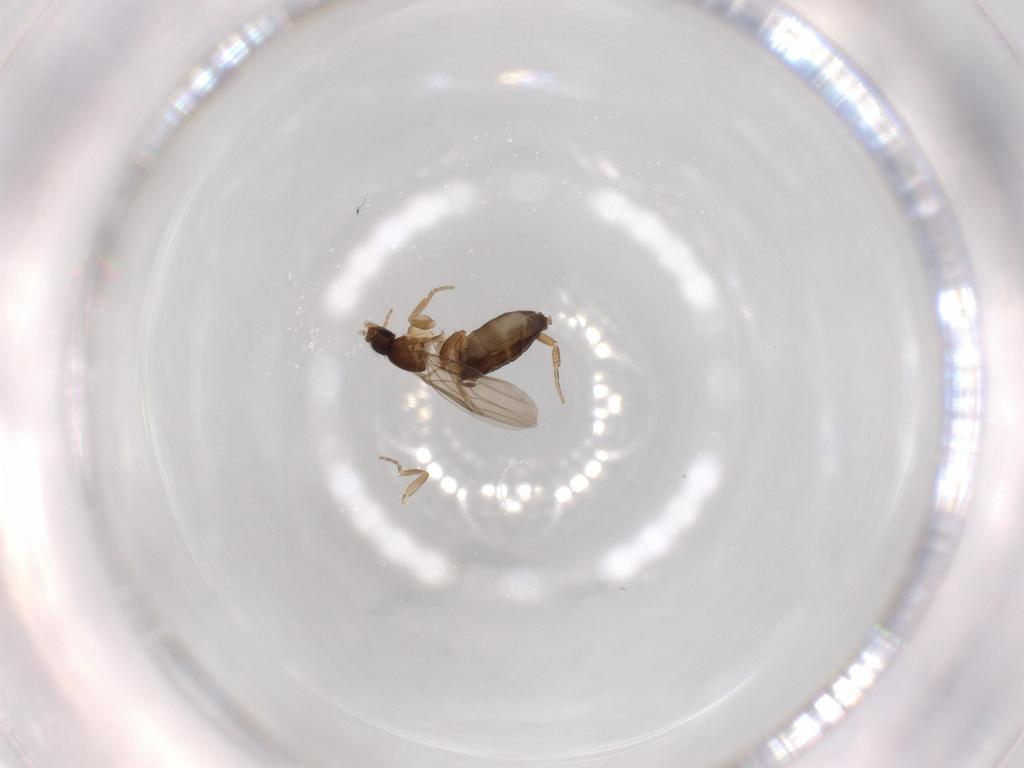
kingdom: Animalia
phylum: Arthropoda
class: Insecta
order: Diptera
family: Phoridae
